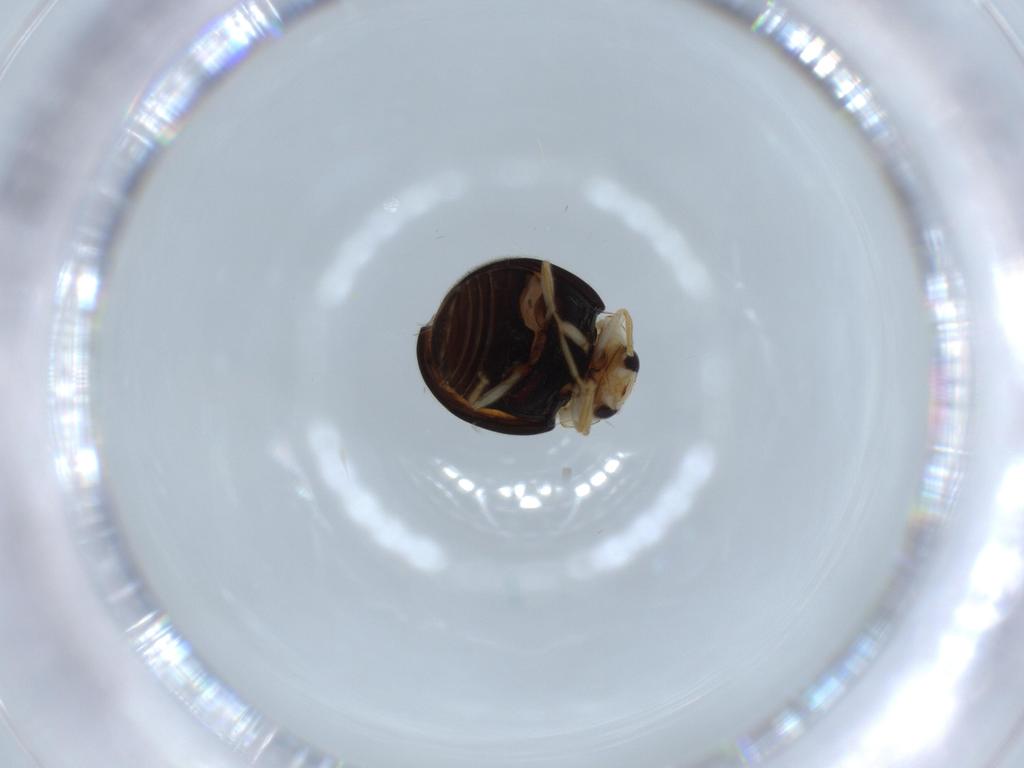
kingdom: Animalia
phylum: Arthropoda
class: Insecta
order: Coleoptera
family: Coccinellidae
